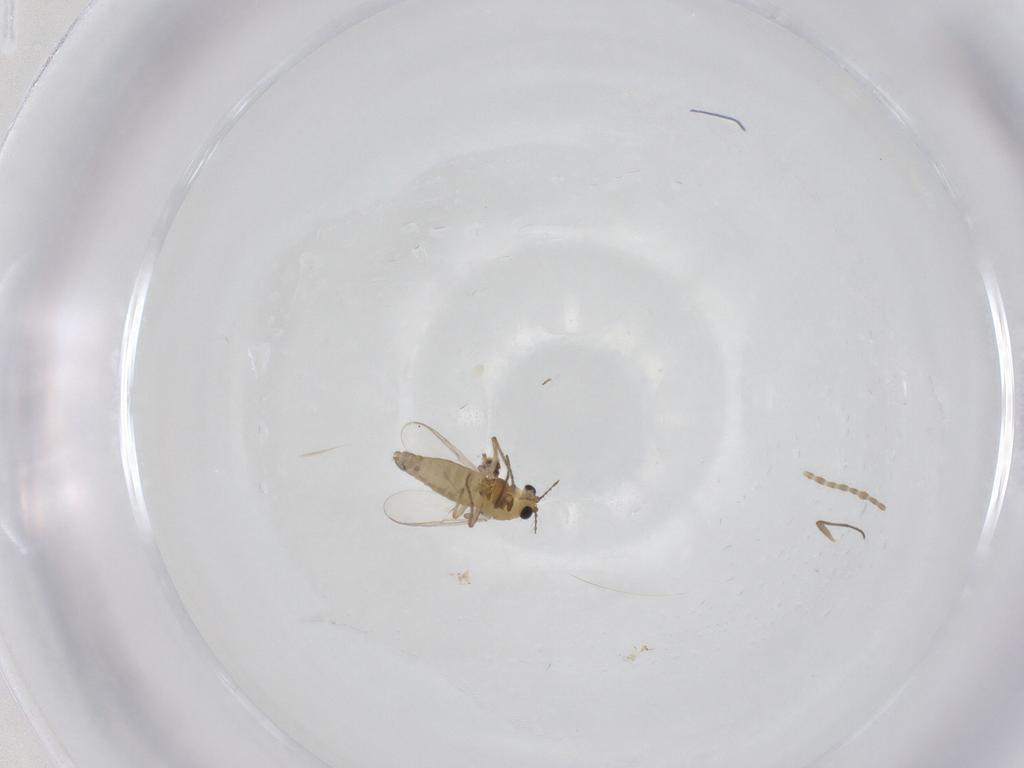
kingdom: Animalia
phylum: Arthropoda
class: Insecta
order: Diptera
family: Chironomidae
